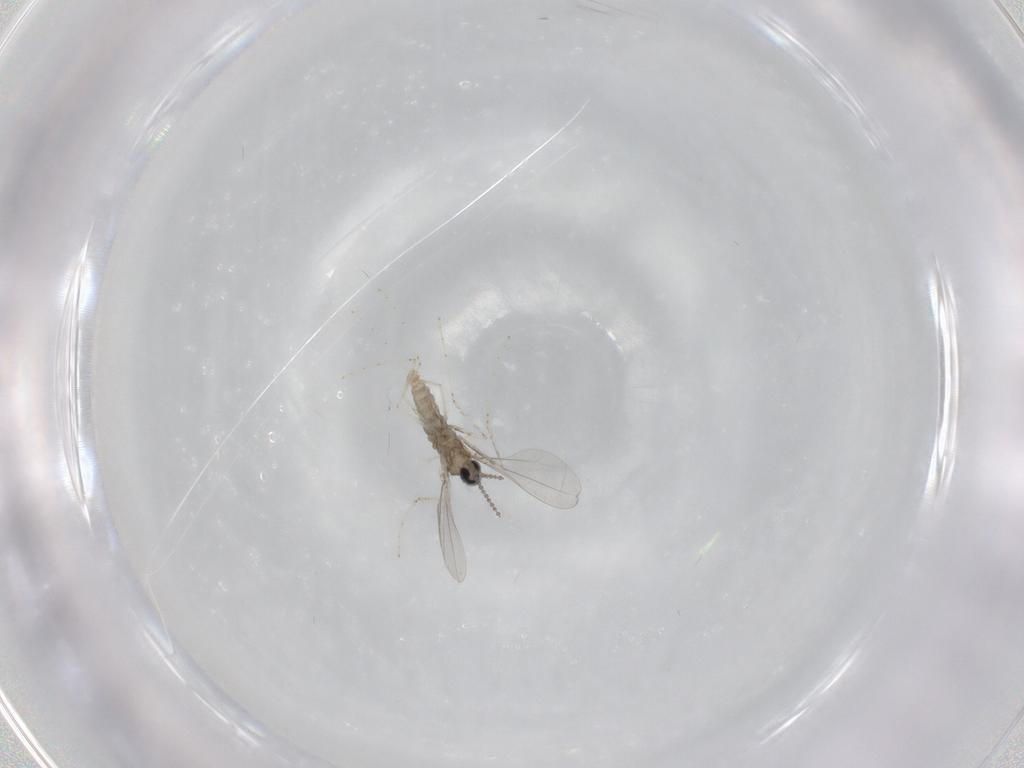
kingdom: Animalia
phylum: Arthropoda
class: Insecta
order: Diptera
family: Cecidomyiidae
